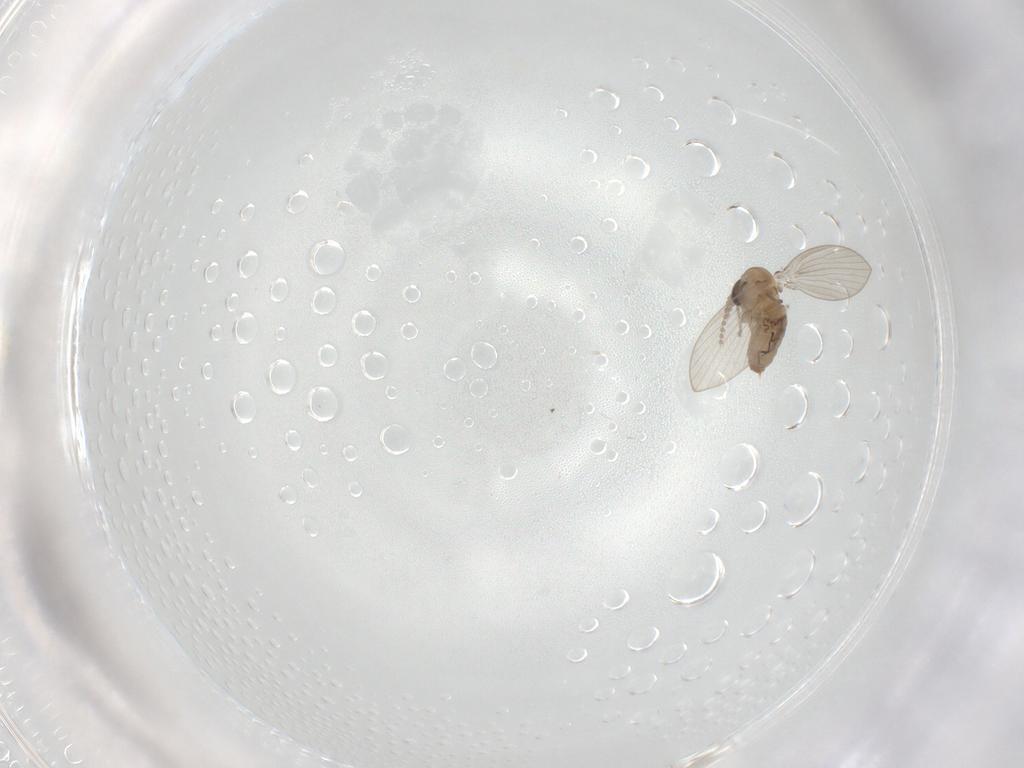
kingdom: Animalia
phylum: Arthropoda
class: Insecta
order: Diptera
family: Psychodidae
